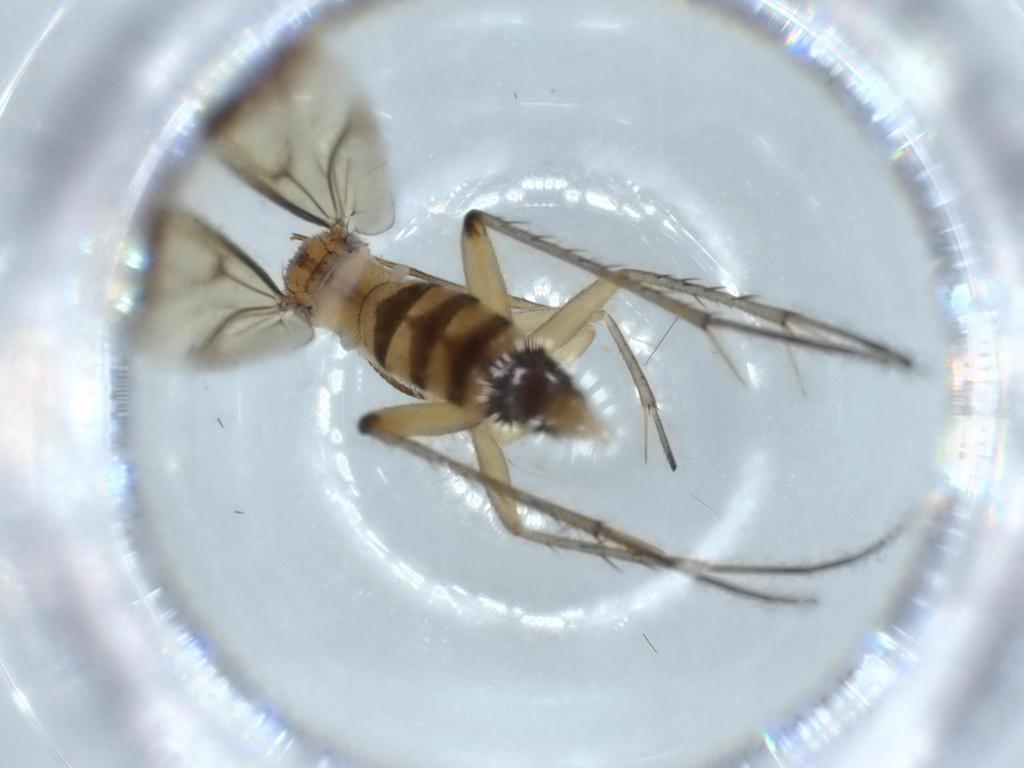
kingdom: Animalia
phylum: Arthropoda
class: Insecta
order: Diptera
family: Mycetophilidae
